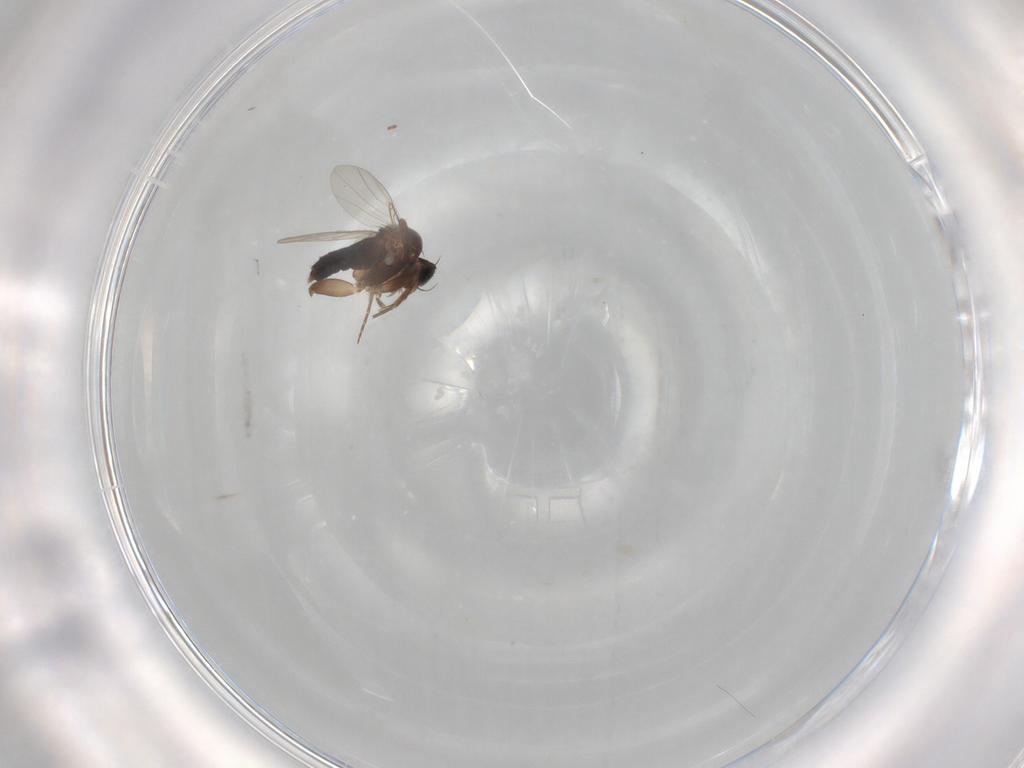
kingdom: Animalia
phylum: Arthropoda
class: Insecta
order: Diptera
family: Phoridae
